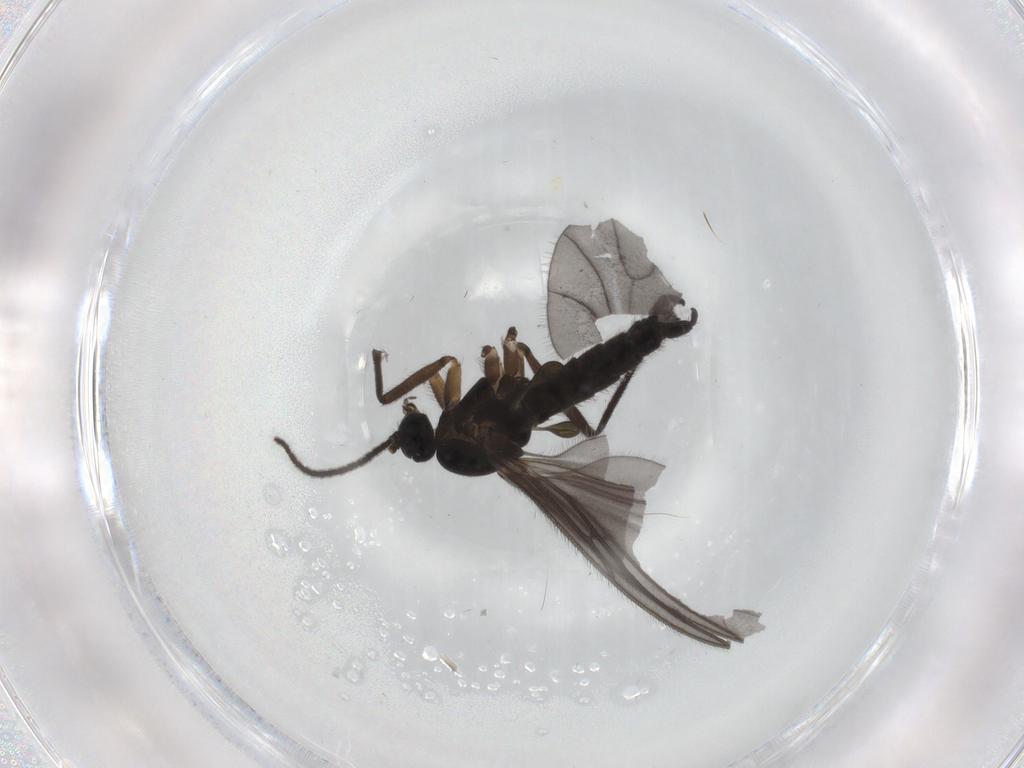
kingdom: Animalia
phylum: Arthropoda
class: Insecta
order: Diptera
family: Sciaridae
